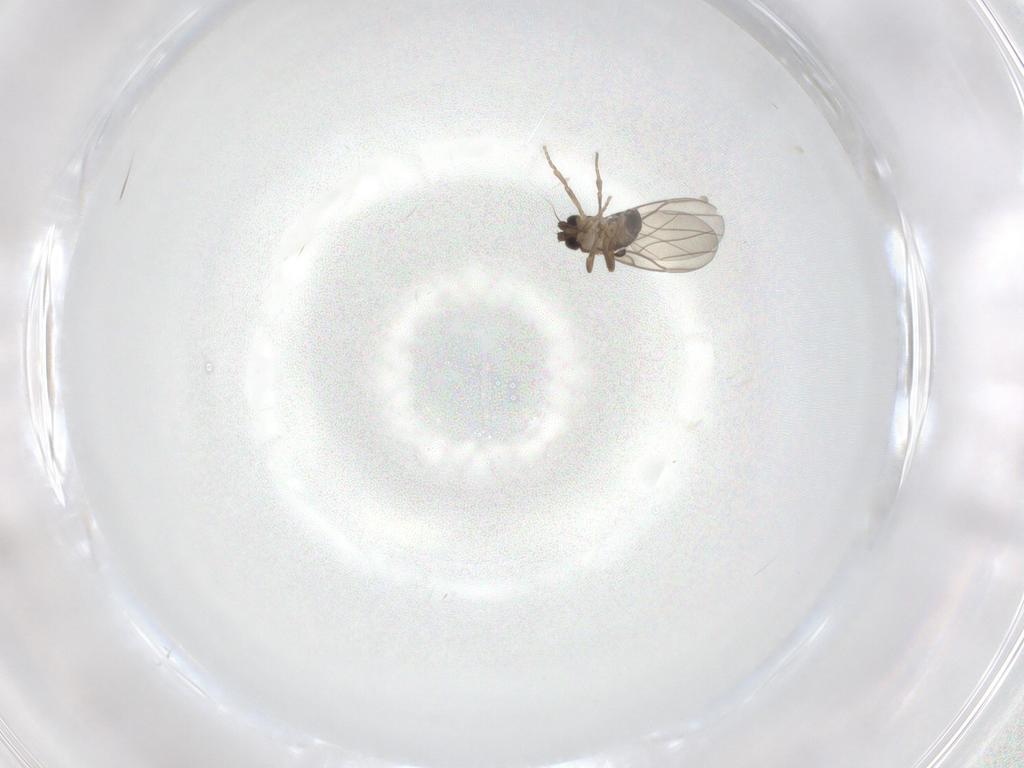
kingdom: Animalia
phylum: Arthropoda
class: Insecta
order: Diptera
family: Phoridae
